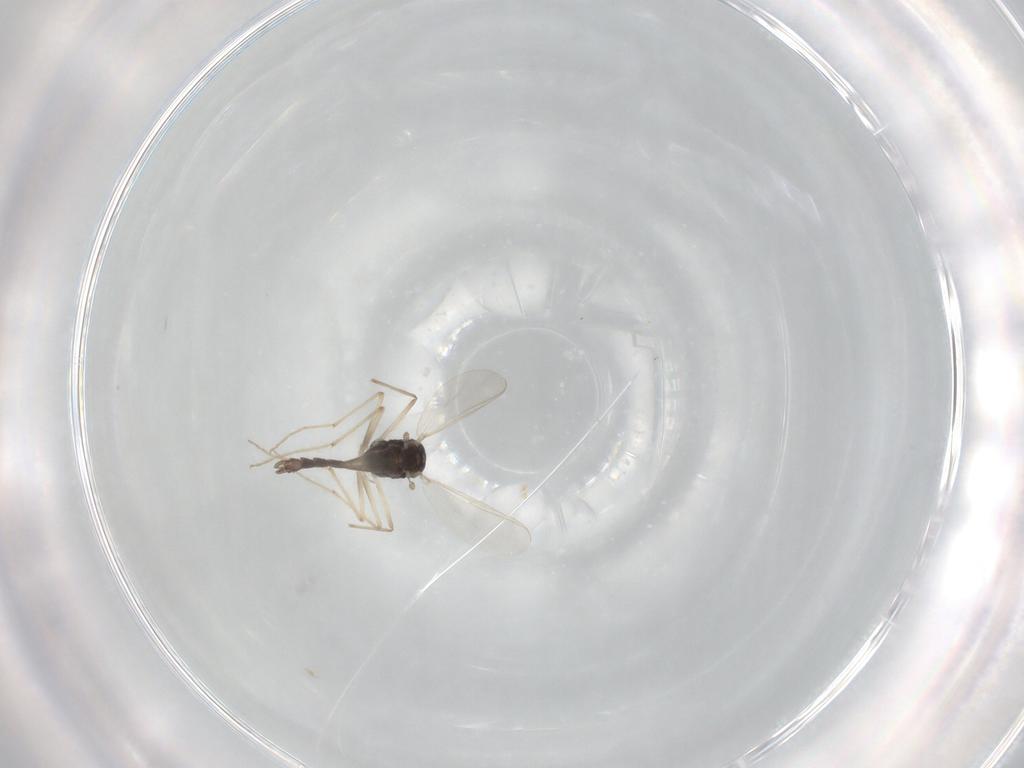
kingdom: Animalia
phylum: Arthropoda
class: Insecta
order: Diptera
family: Chironomidae
